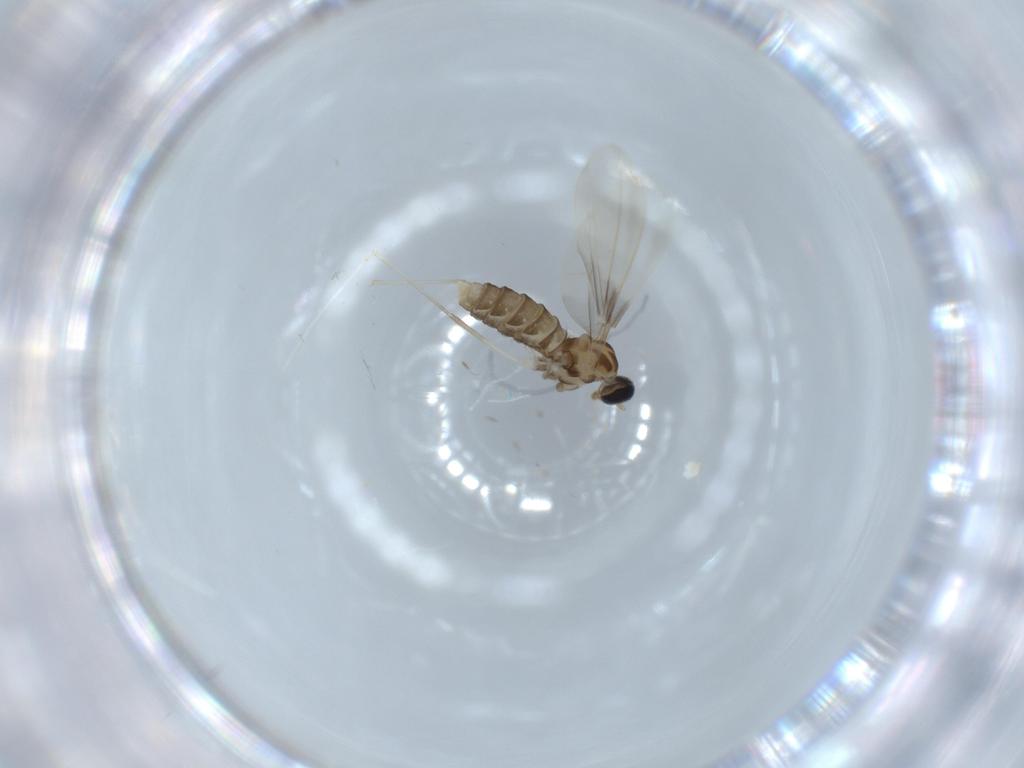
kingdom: Animalia
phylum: Arthropoda
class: Insecta
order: Diptera
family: Cecidomyiidae
